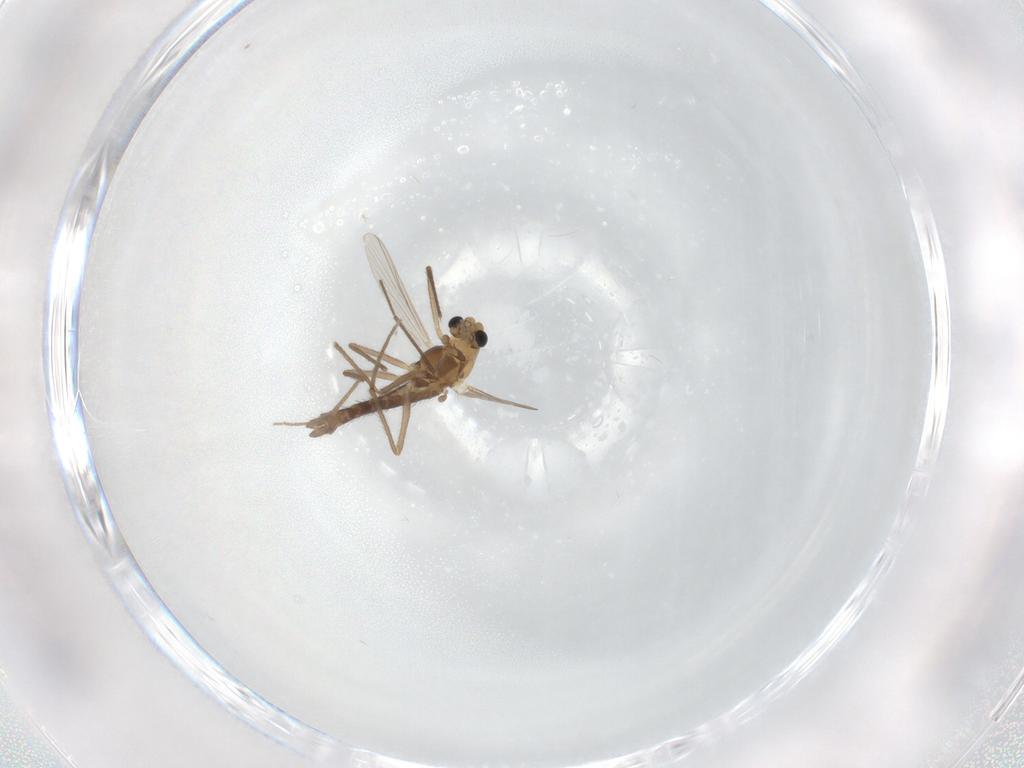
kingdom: Animalia
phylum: Arthropoda
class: Insecta
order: Diptera
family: Chironomidae
